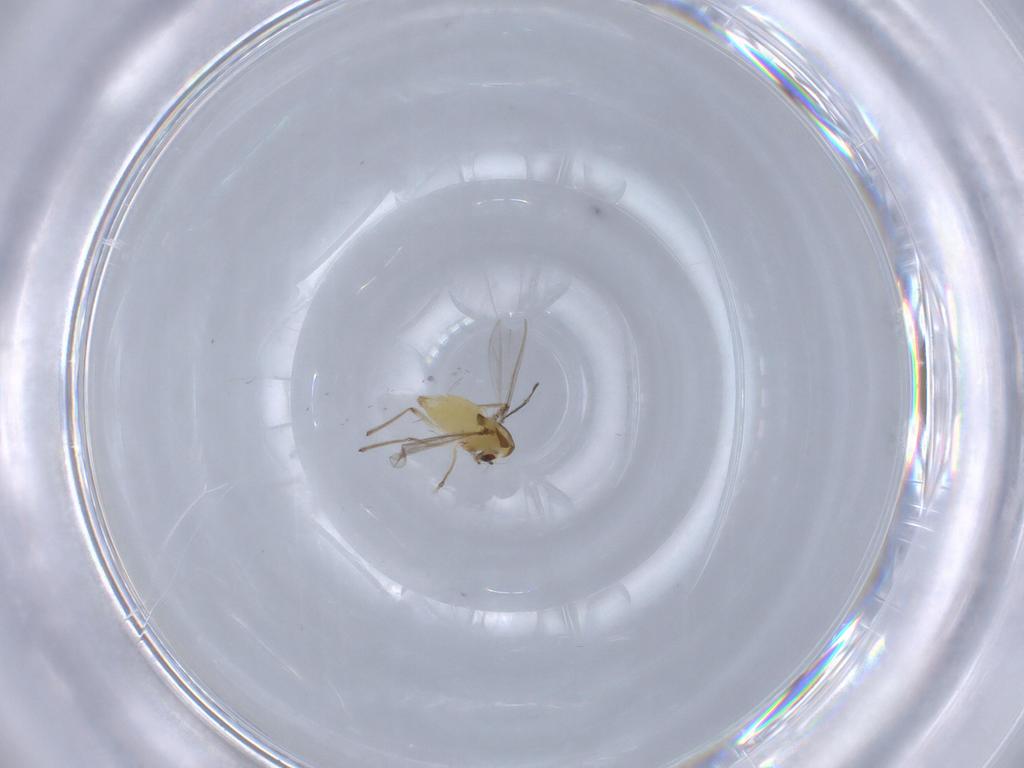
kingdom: Animalia
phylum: Arthropoda
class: Insecta
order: Diptera
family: Chironomidae
